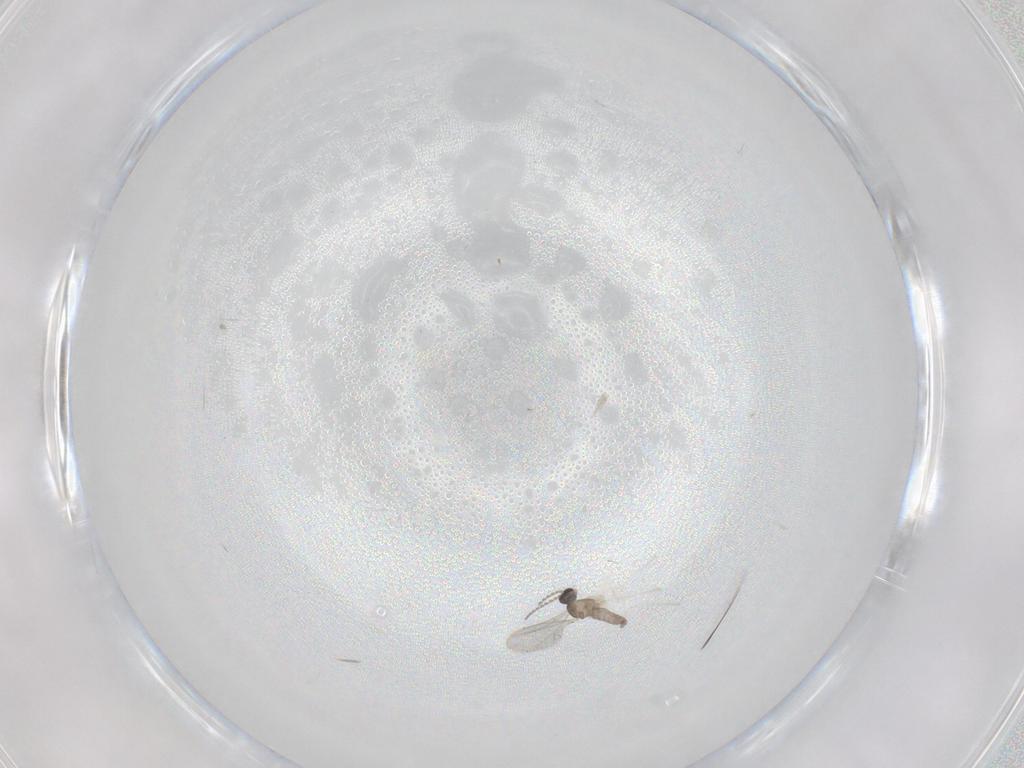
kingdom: Animalia
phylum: Arthropoda
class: Insecta
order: Diptera
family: Cecidomyiidae
